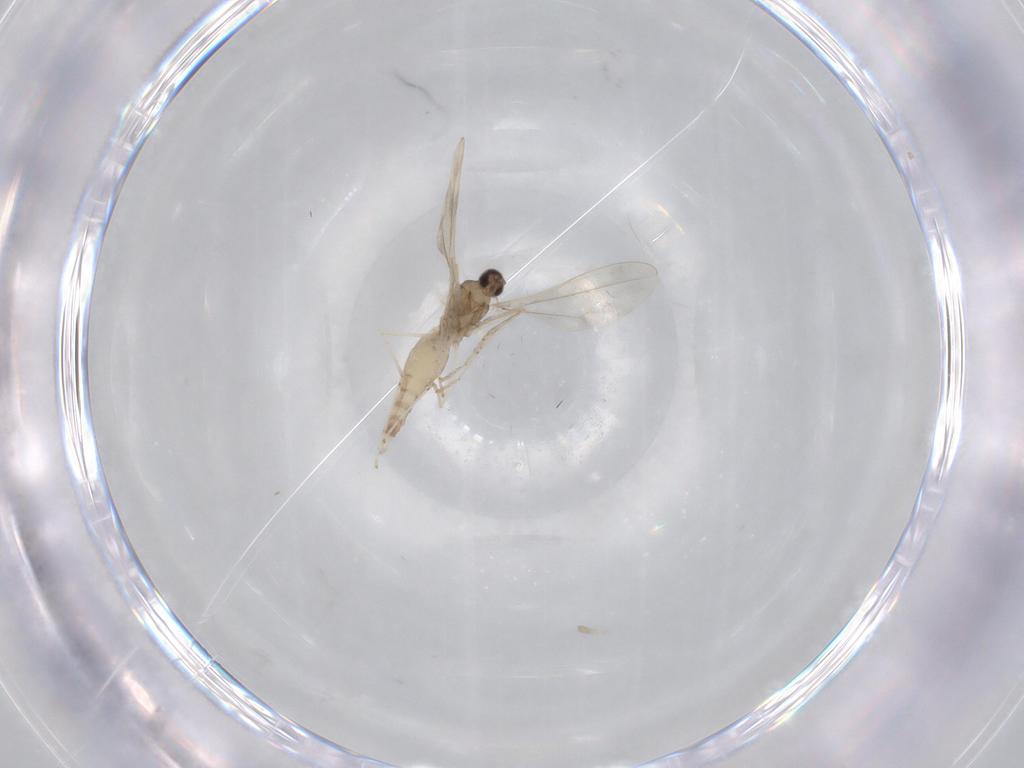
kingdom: Animalia
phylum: Arthropoda
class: Insecta
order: Diptera
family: Cecidomyiidae
